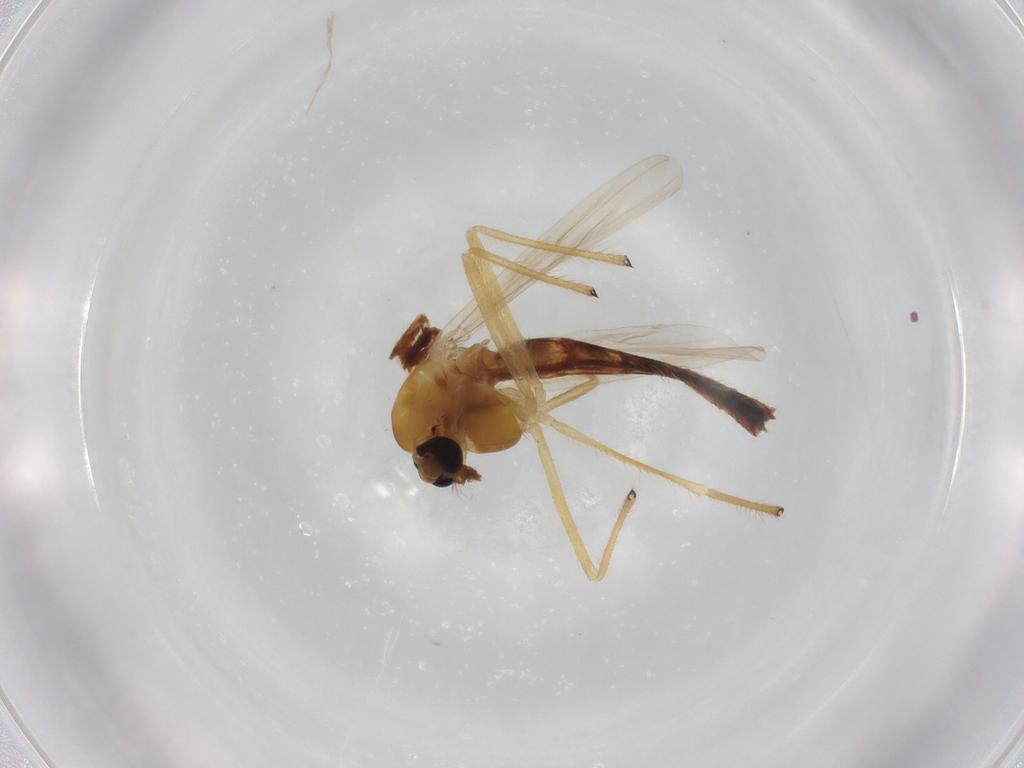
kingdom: Animalia
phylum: Arthropoda
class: Insecta
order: Diptera
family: Chironomidae
